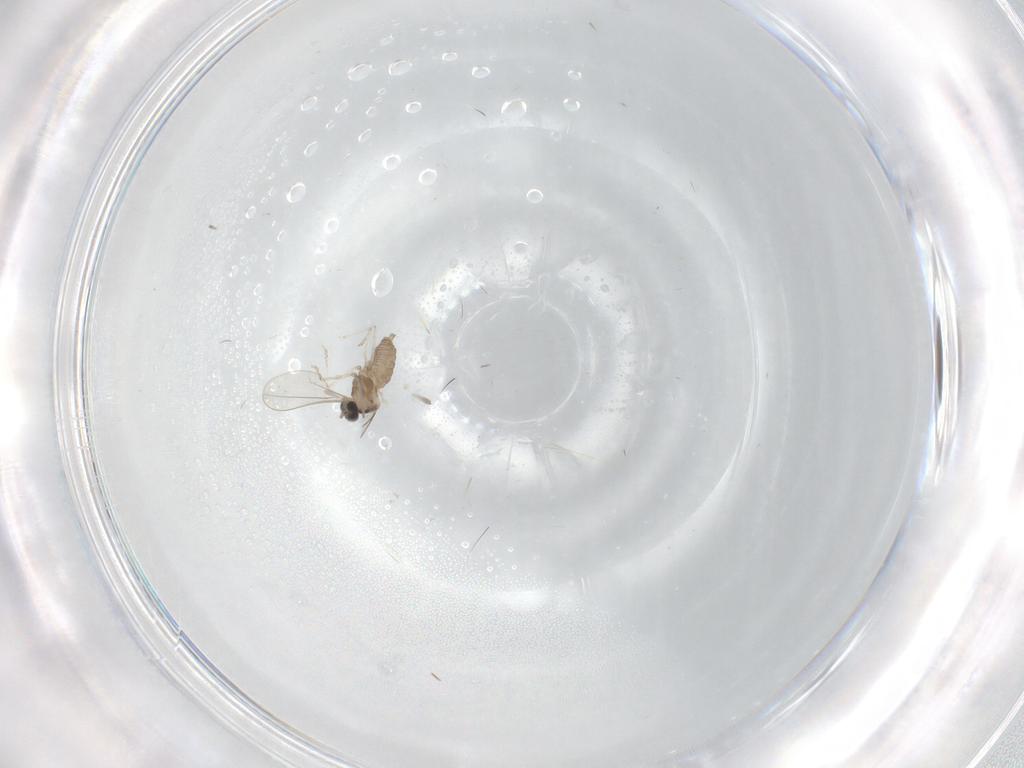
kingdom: Animalia
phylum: Arthropoda
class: Insecta
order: Diptera
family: Cecidomyiidae
